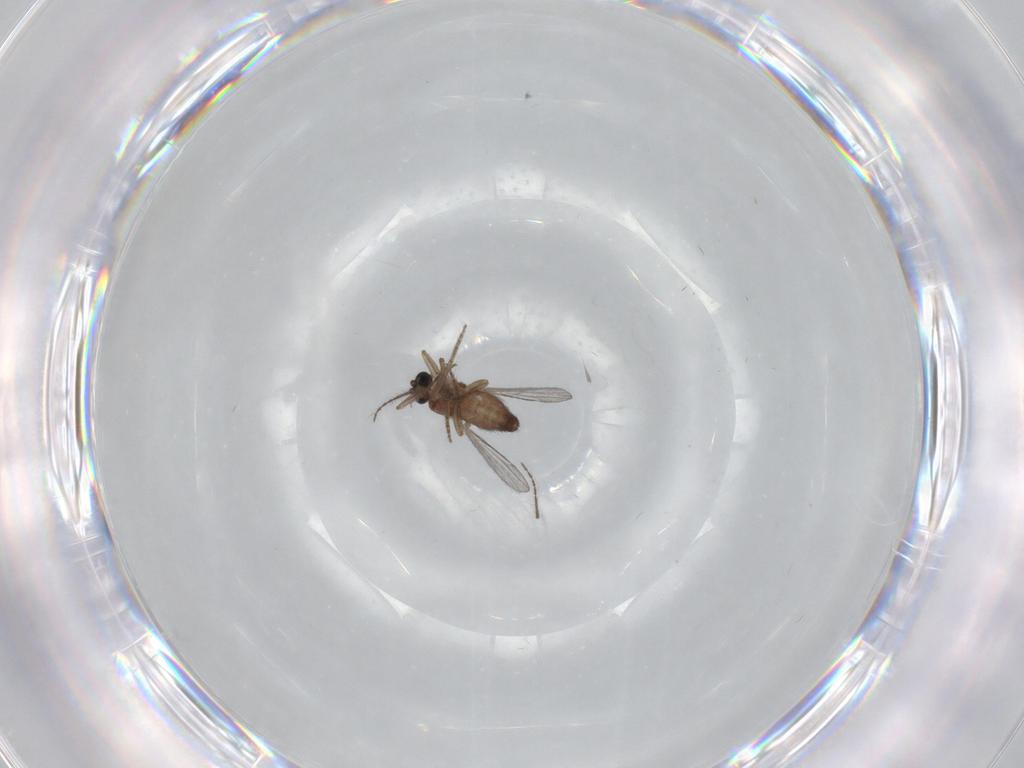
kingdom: Animalia
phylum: Arthropoda
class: Insecta
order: Diptera
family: Ceratopogonidae
